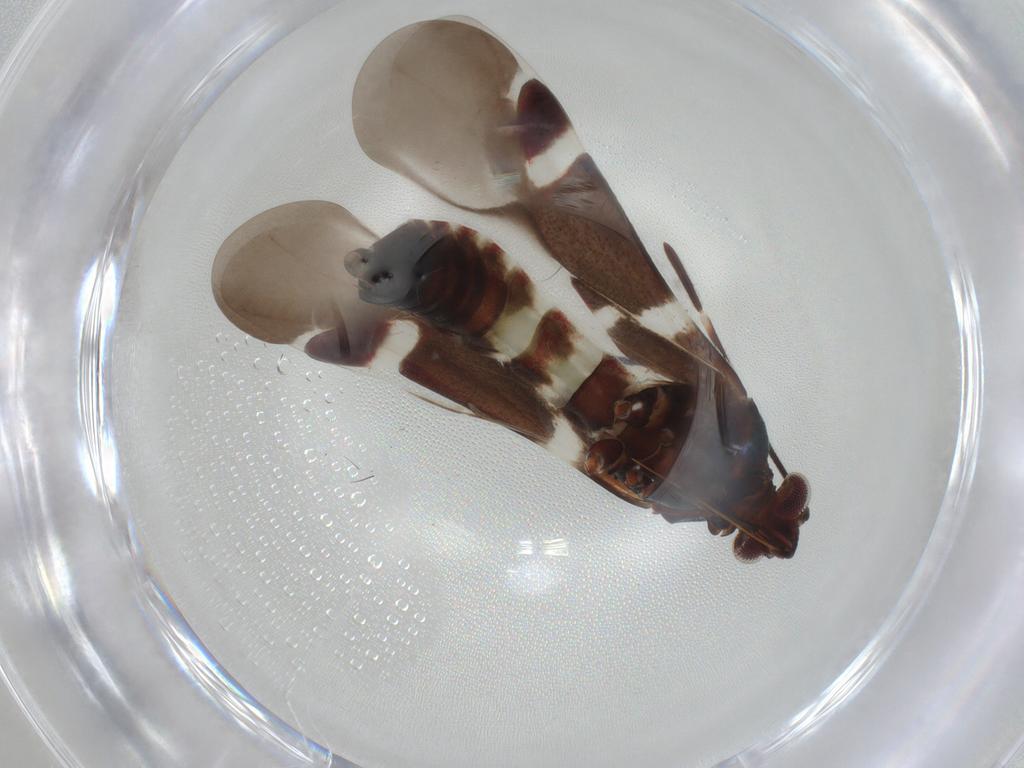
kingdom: Animalia
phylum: Arthropoda
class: Insecta
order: Hemiptera
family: Miridae
